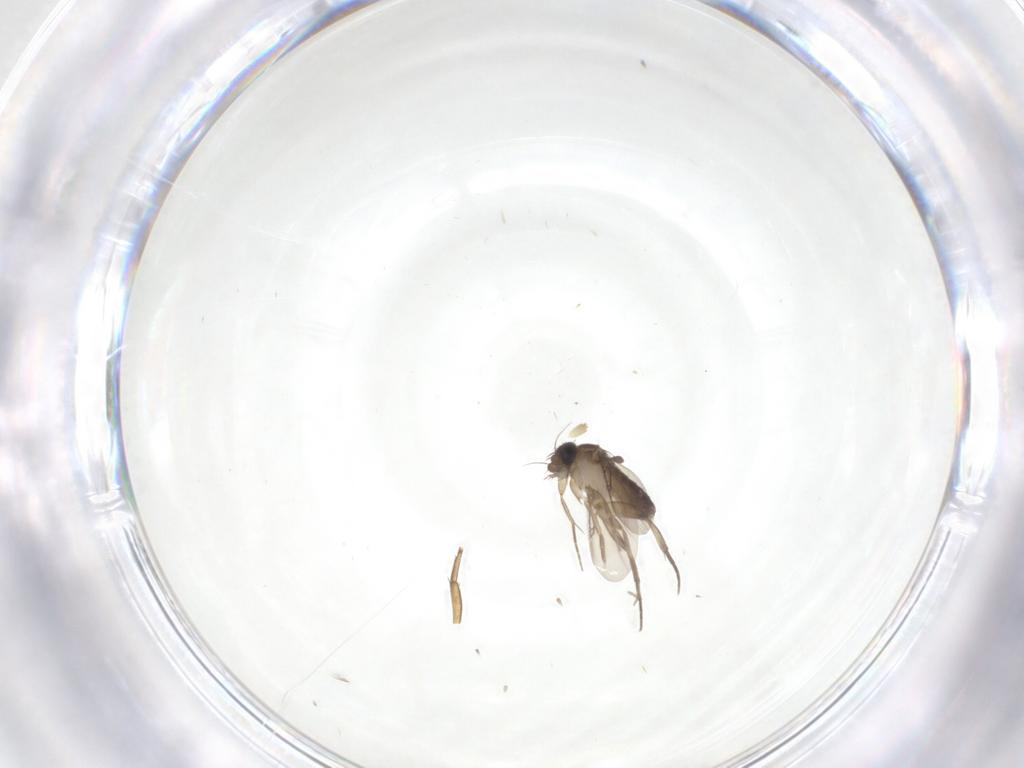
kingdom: Animalia
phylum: Arthropoda
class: Insecta
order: Diptera
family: Phoridae
